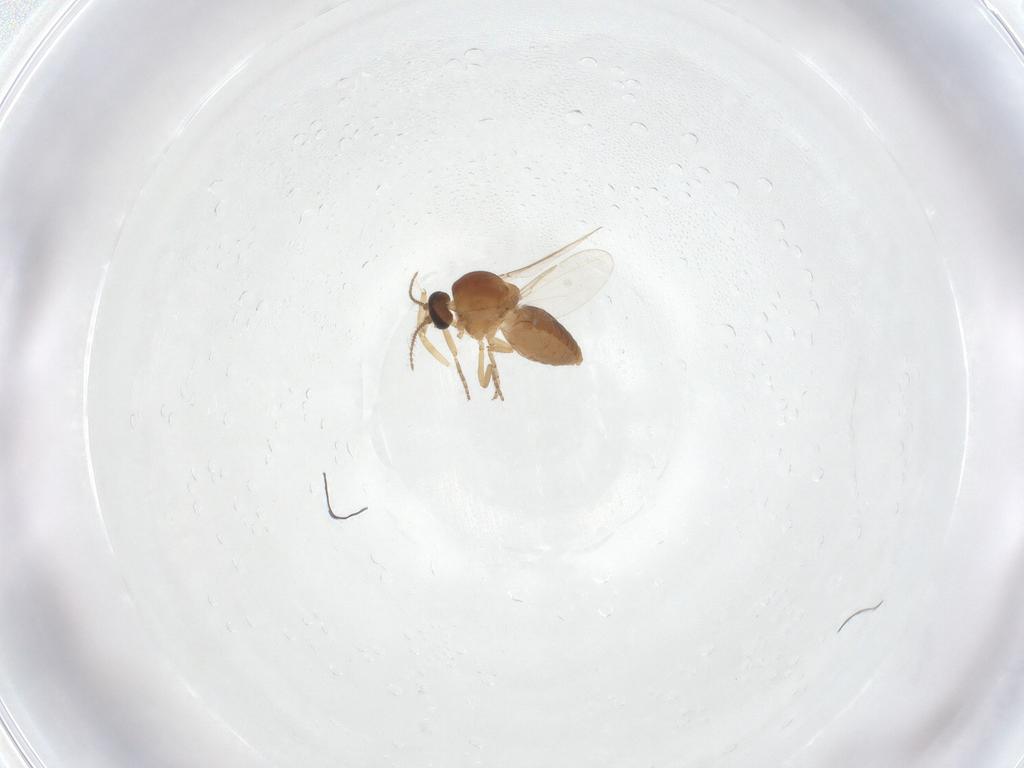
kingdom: Animalia
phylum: Arthropoda
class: Insecta
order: Diptera
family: Ceratopogonidae
